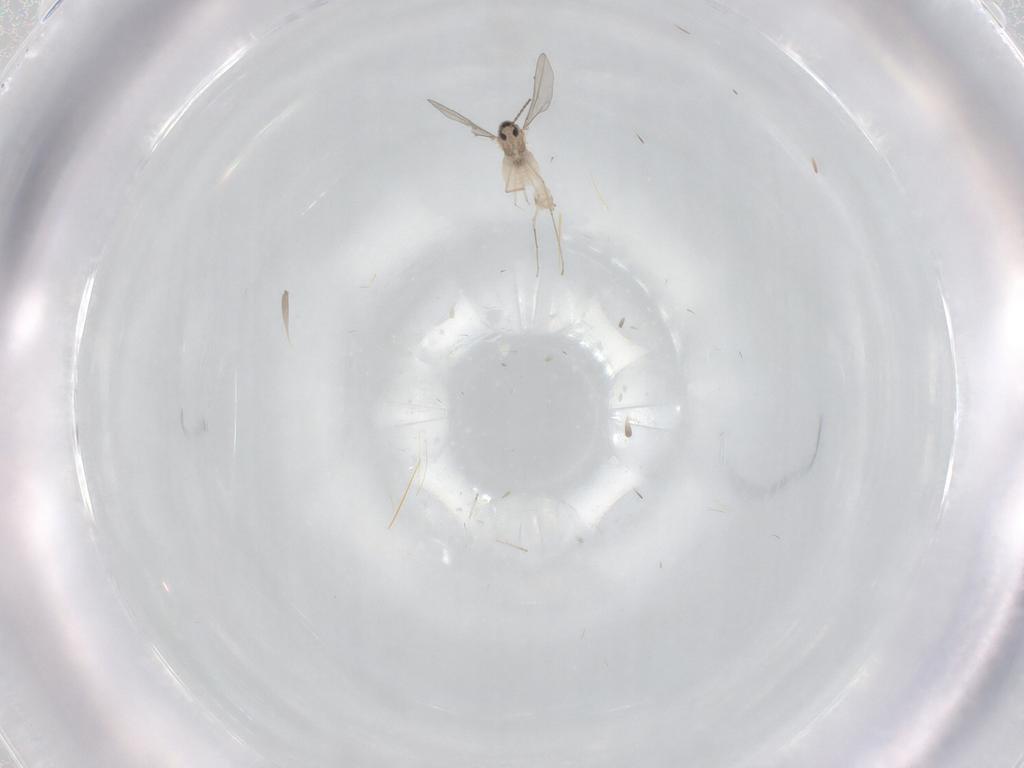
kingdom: Animalia
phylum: Arthropoda
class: Insecta
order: Diptera
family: Cecidomyiidae
